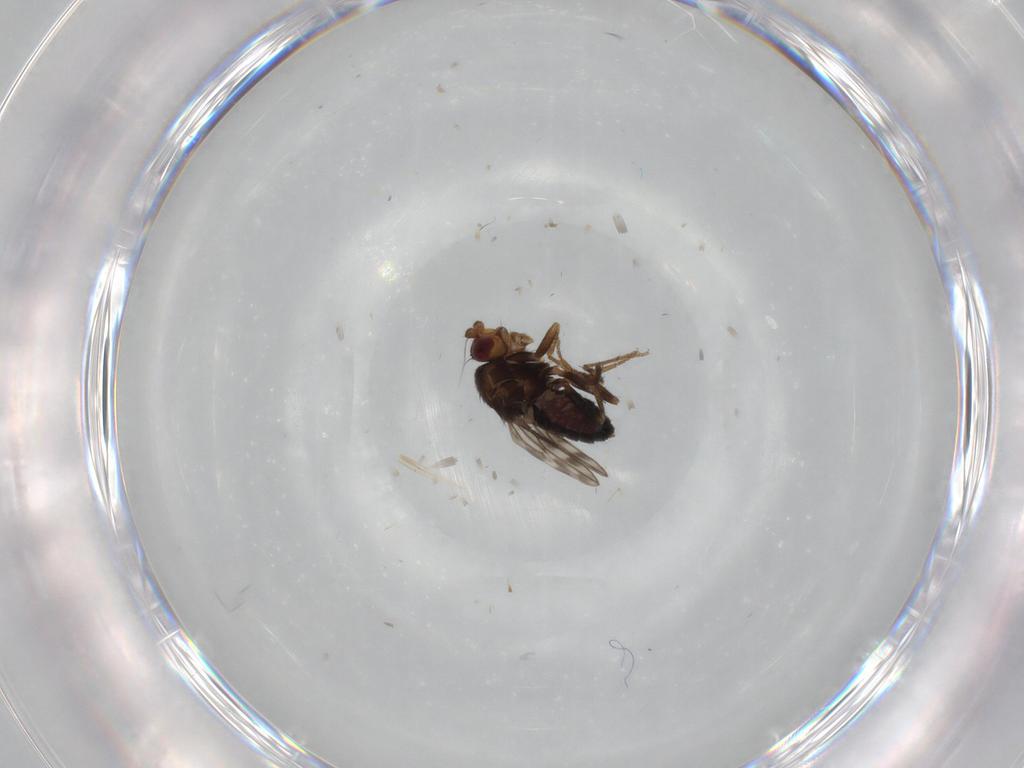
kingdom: Animalia
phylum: Arthropoda
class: Insecta
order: Diptera
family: Sphaeroceridae
